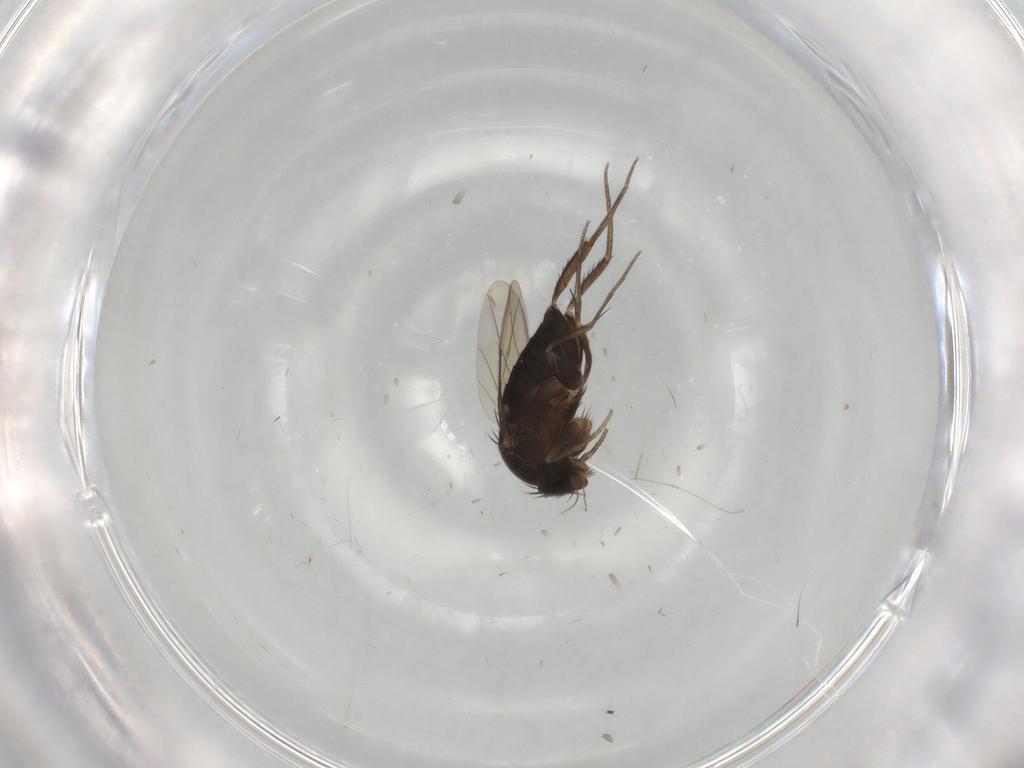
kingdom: Animalia
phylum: Arthropoda
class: Insecta
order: Diptera
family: Phoridae
